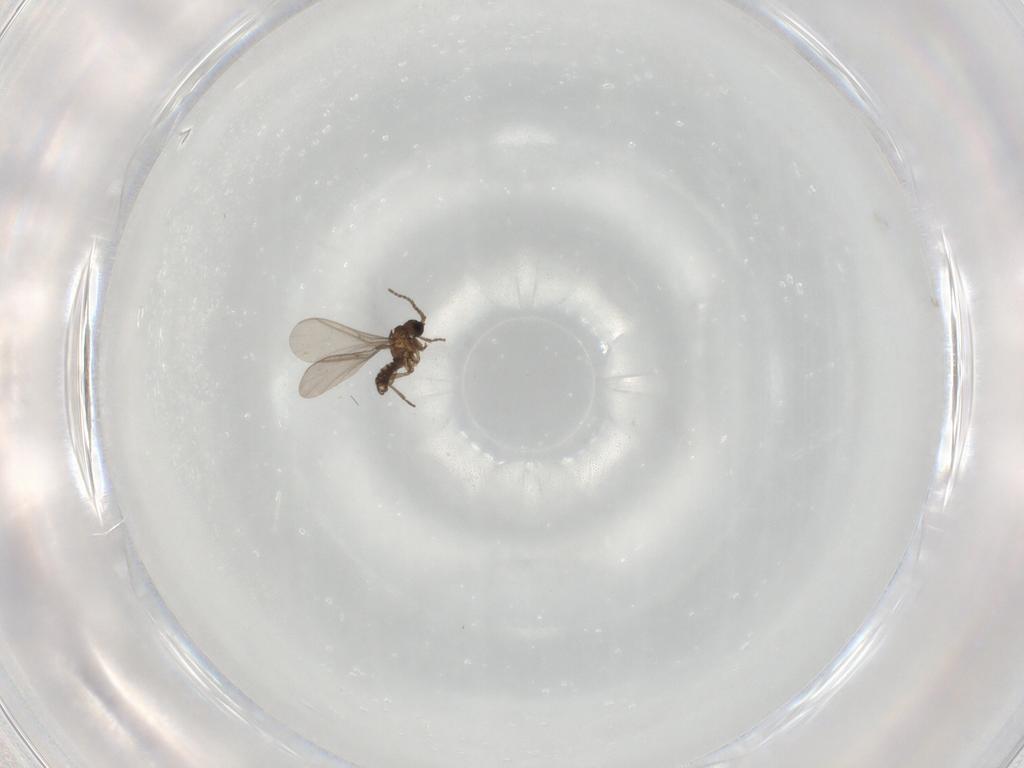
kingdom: Animalia
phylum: Arthropoda
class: Insecta
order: Diptera
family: Sciaridae
